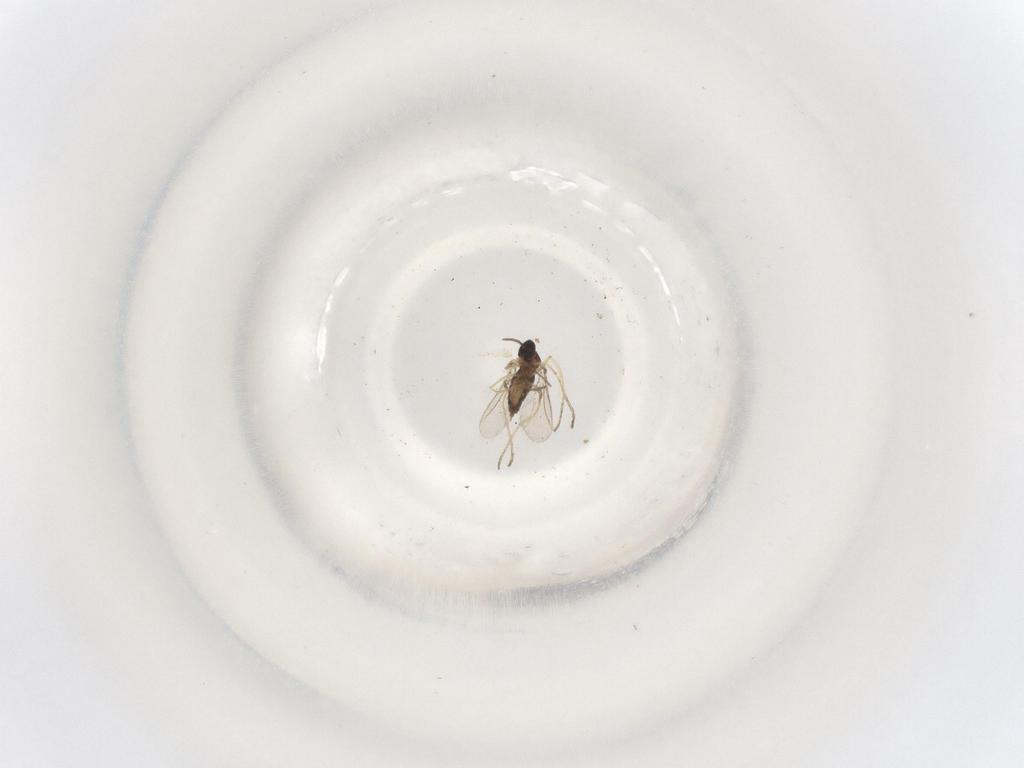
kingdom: Animalia
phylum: Arthropoda
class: Insecta
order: Diptera
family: Cecidomyiidae
